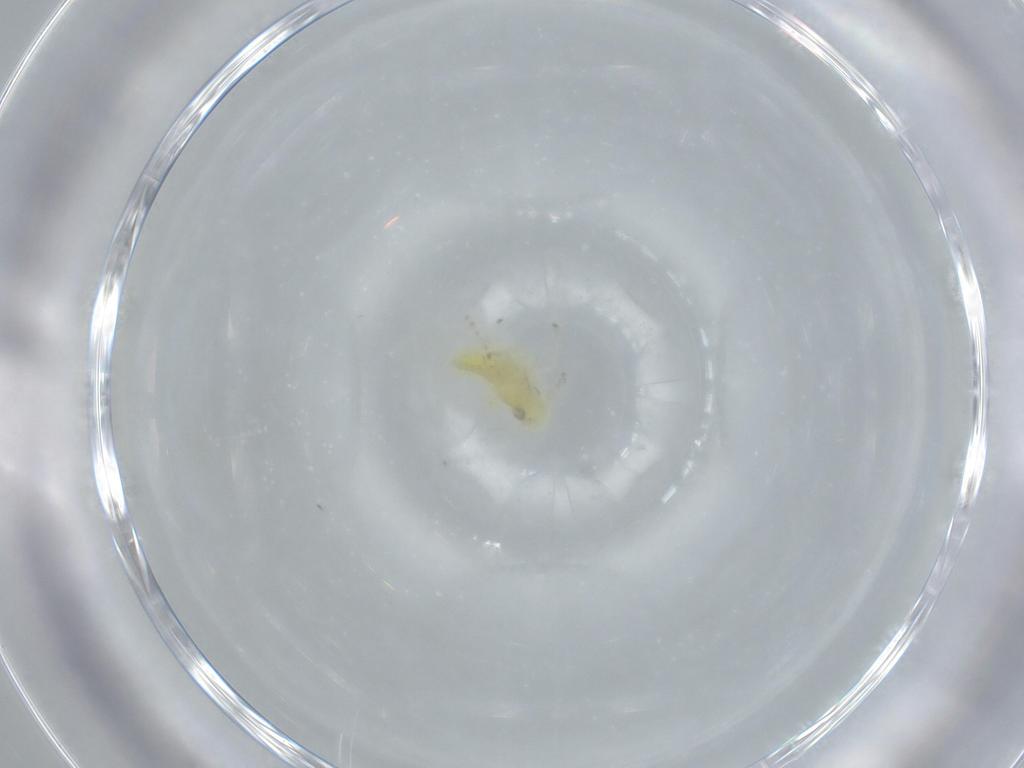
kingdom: Animalia
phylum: Arthropoda
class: Insecta
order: Hemiptera
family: Cicadellidae
